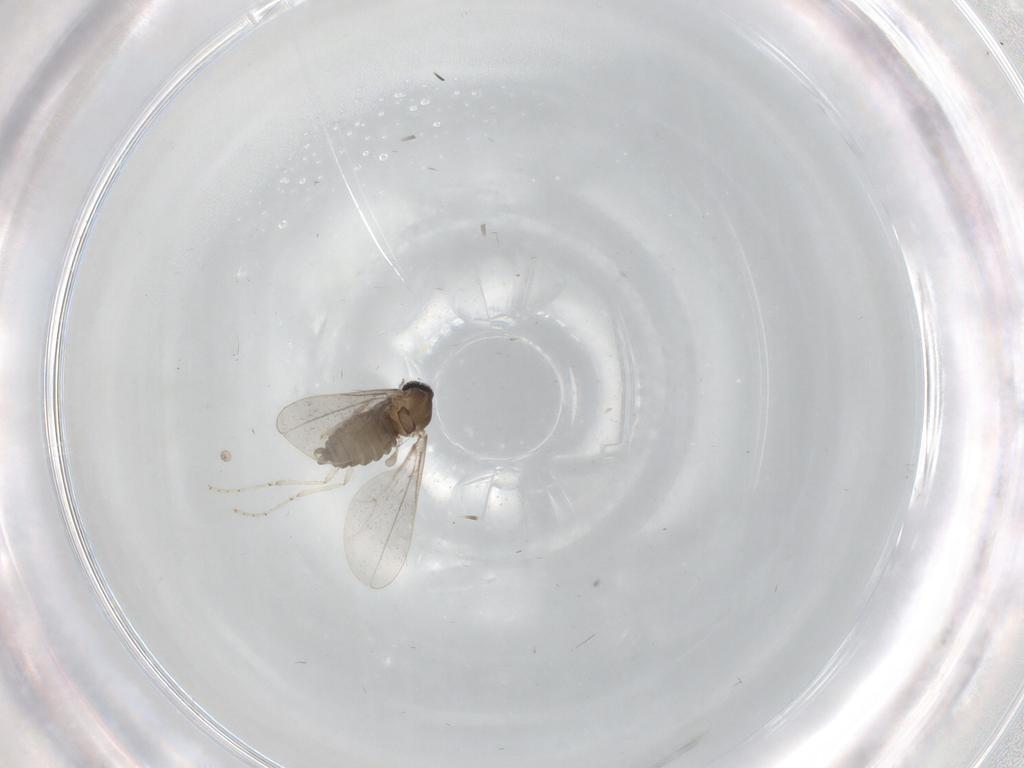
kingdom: Animalia
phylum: Arthropoda
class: Insecta
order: Diptera
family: Cecidomyiidae
